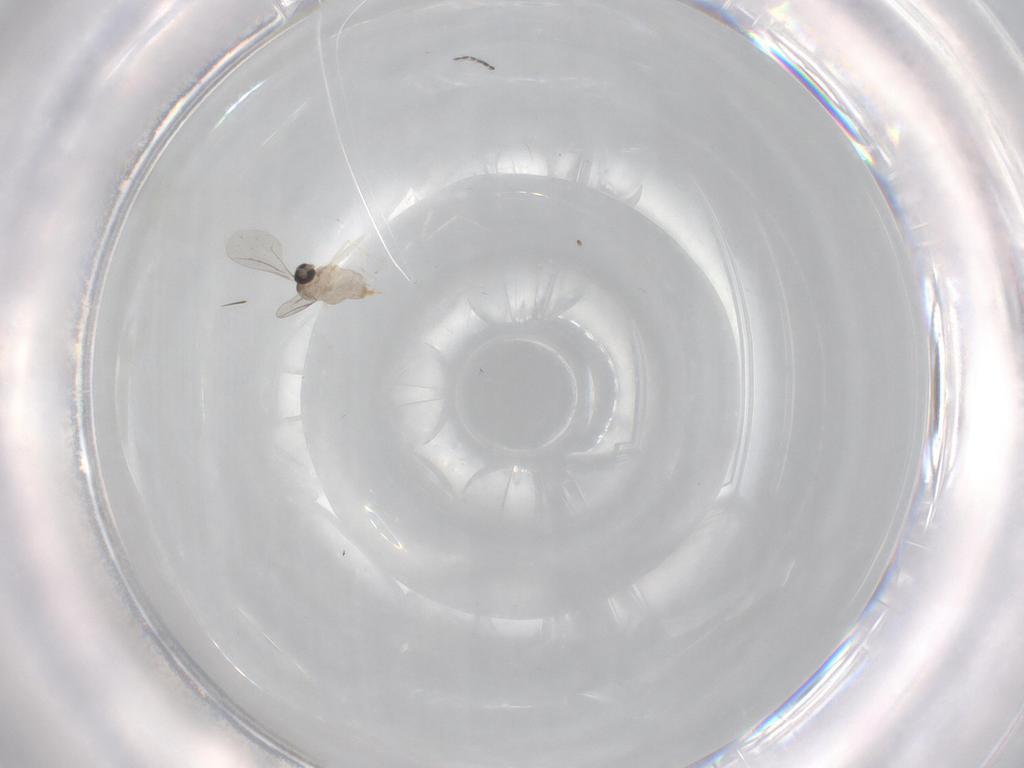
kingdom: Animalia
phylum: Arthropoda
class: Insecta
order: Diptera
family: Cecidomyiidae
